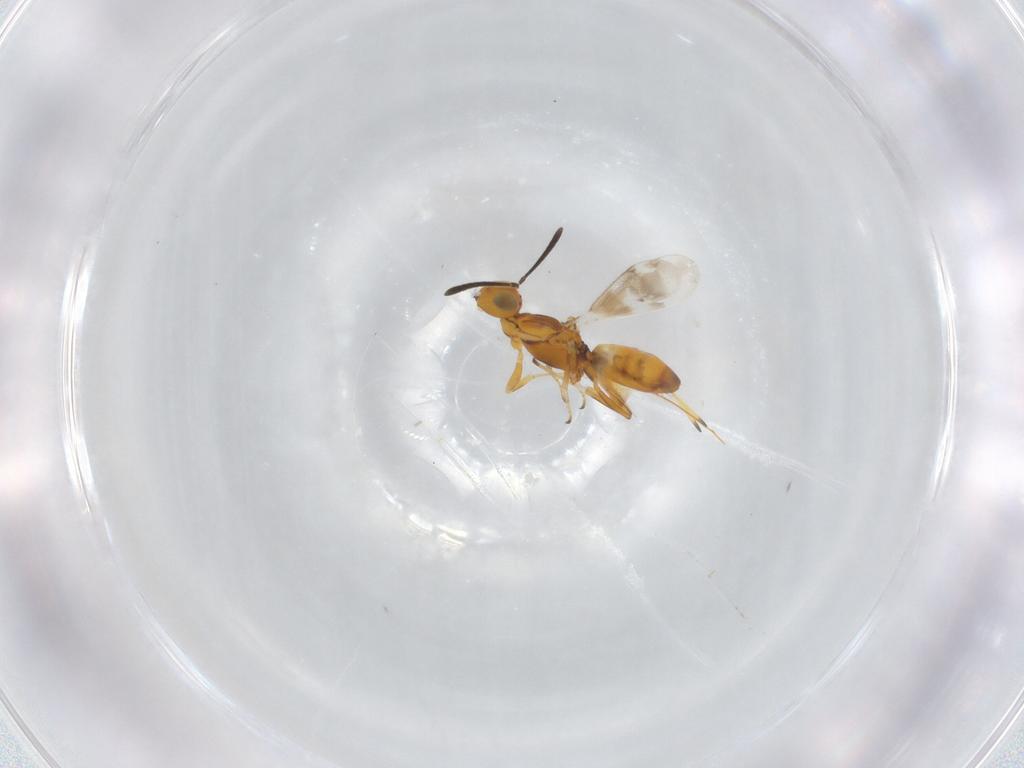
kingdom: Animalia
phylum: Arthropoda
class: Insecta
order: Hymenoptera
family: Eupelmidae
